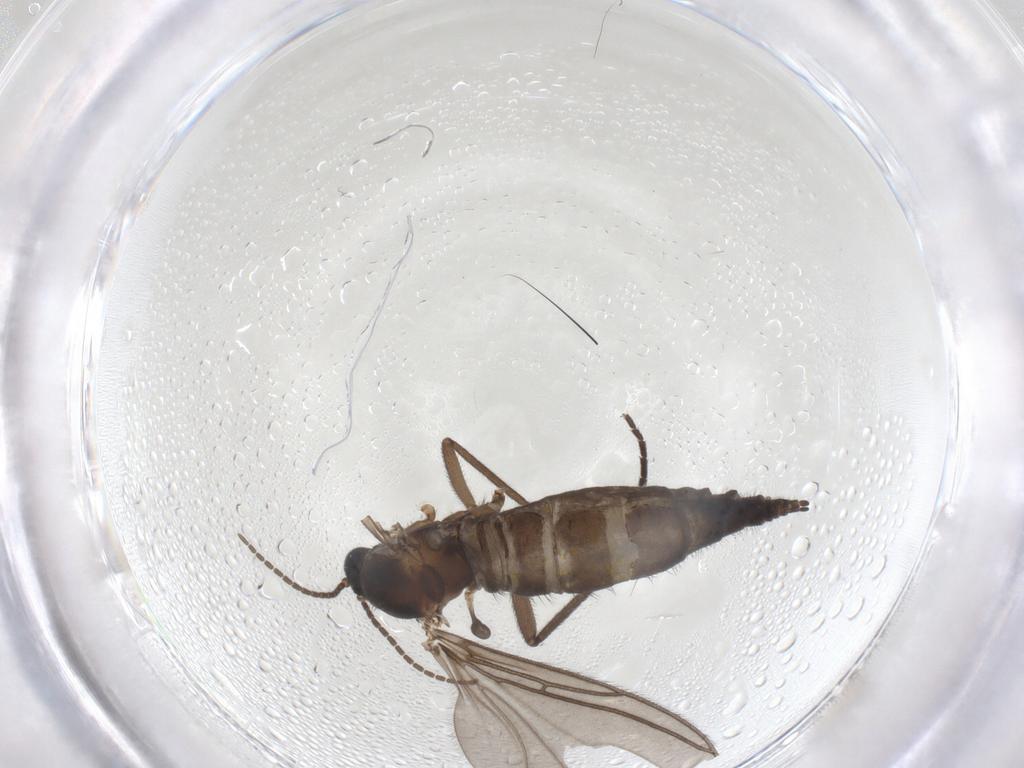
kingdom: Animalia
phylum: Arthropoda
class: Insecta
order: Diptera
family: Sciaridae
